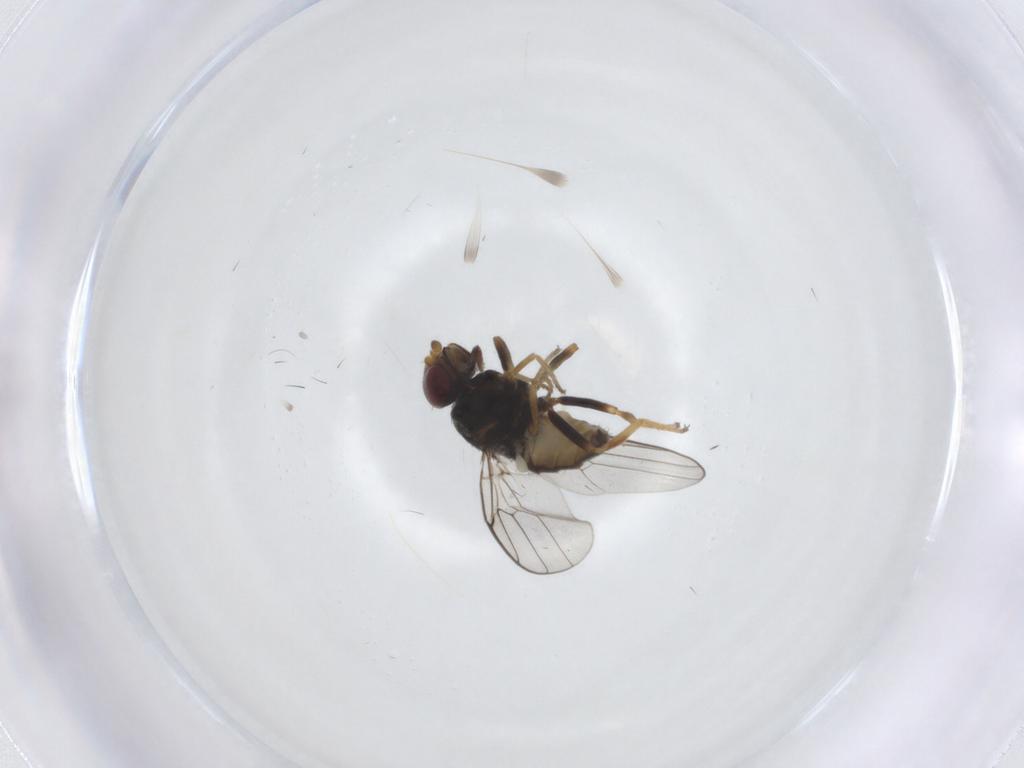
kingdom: Animalia
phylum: Arthropoda
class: Insecta
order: Diptera
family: Chloropidae
